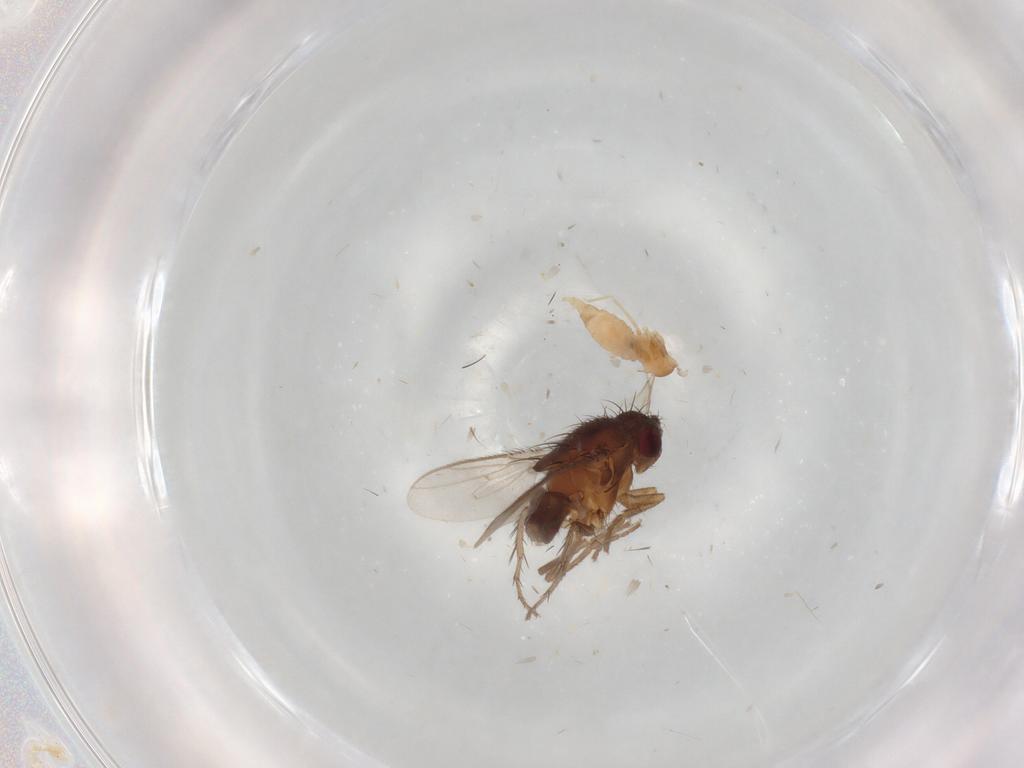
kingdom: Animalia
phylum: Arthropoda
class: Insecta
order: Diptera
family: Cecidomyiidae
